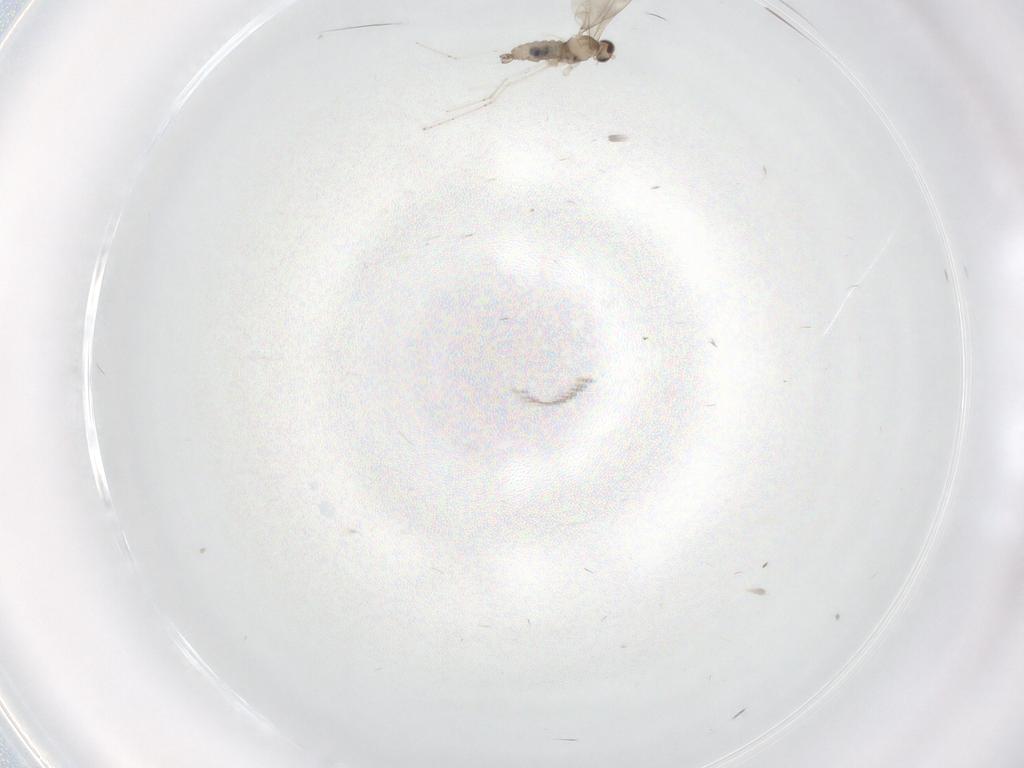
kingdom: Animalia
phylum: Arthropoda
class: Insecta
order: Diptera
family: Cecidomyiidae
